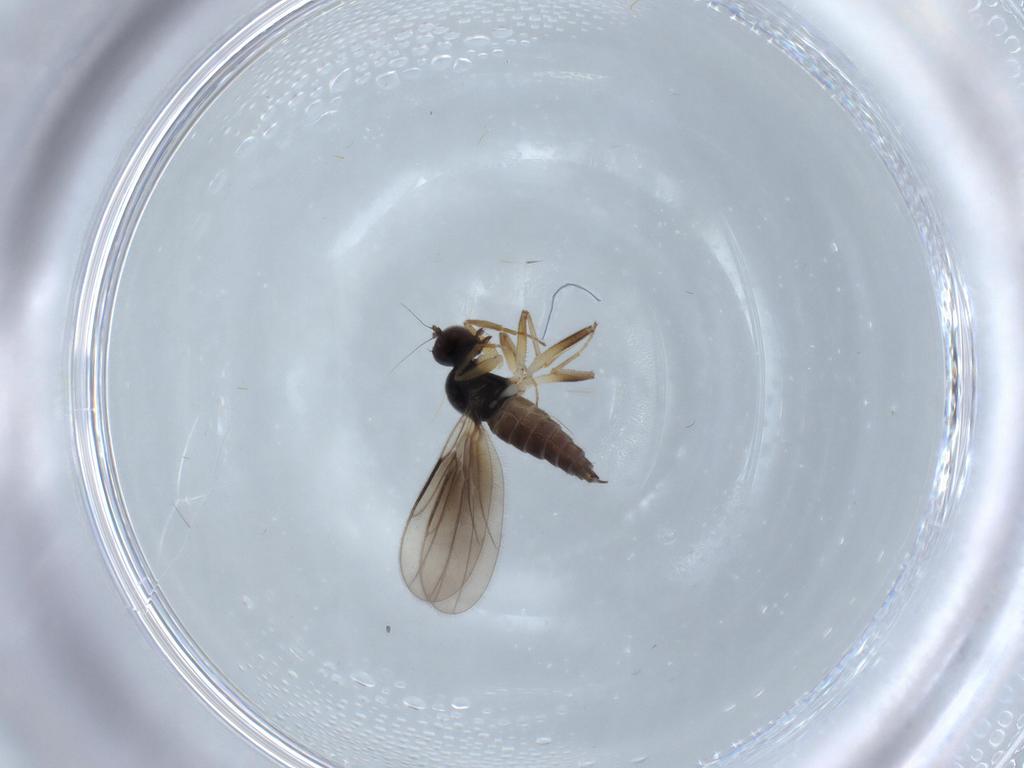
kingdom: Animalia
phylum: Arthropoda
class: Insecta
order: Diptera
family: Hybotidae
